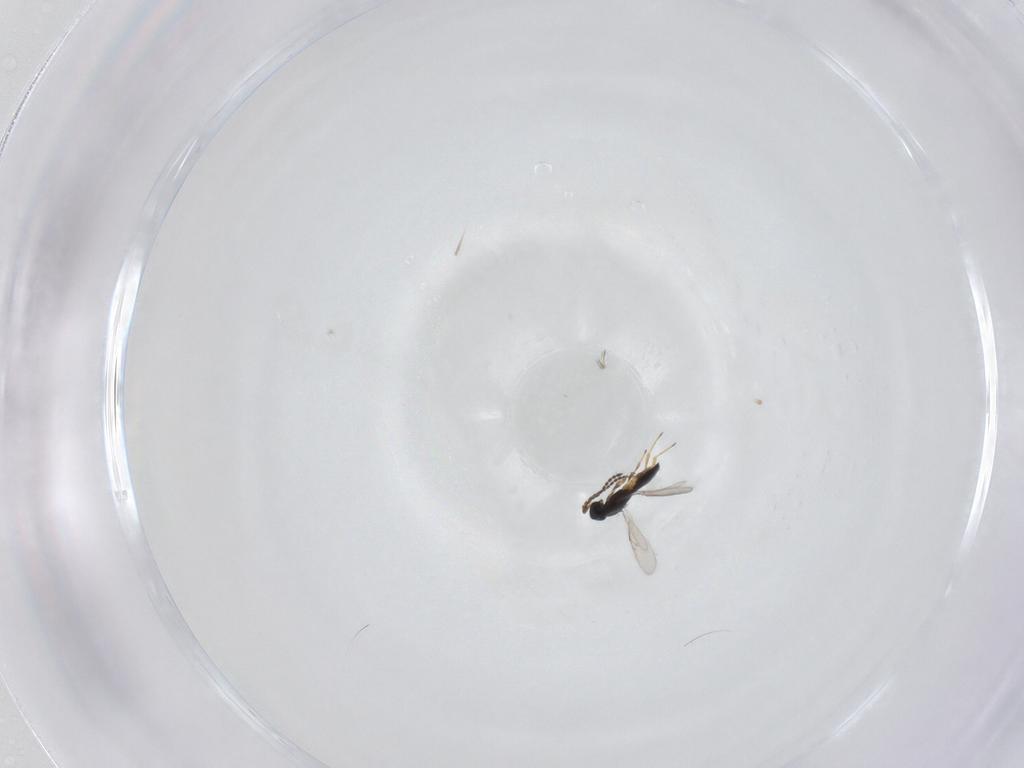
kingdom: Animalia
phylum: Arthropoda
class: Insecta
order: Hymenoptera
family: Scelionidae
